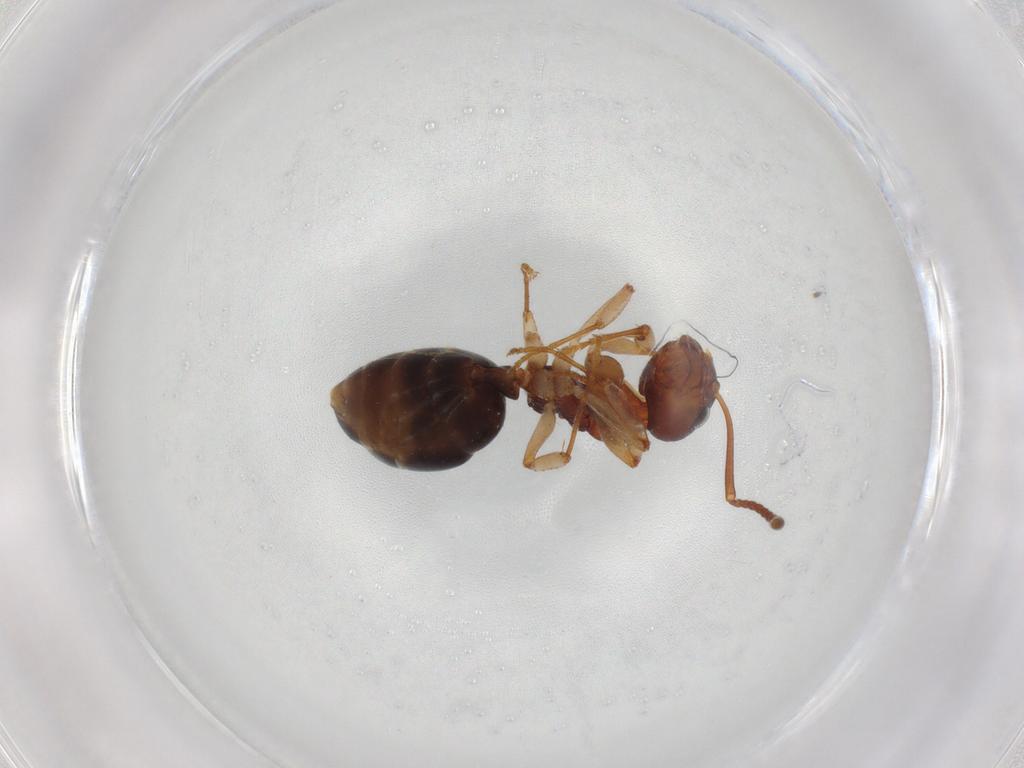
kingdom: Animalia
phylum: Arthropoda
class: Insecta
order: Hymenoptera
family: Formicidae
